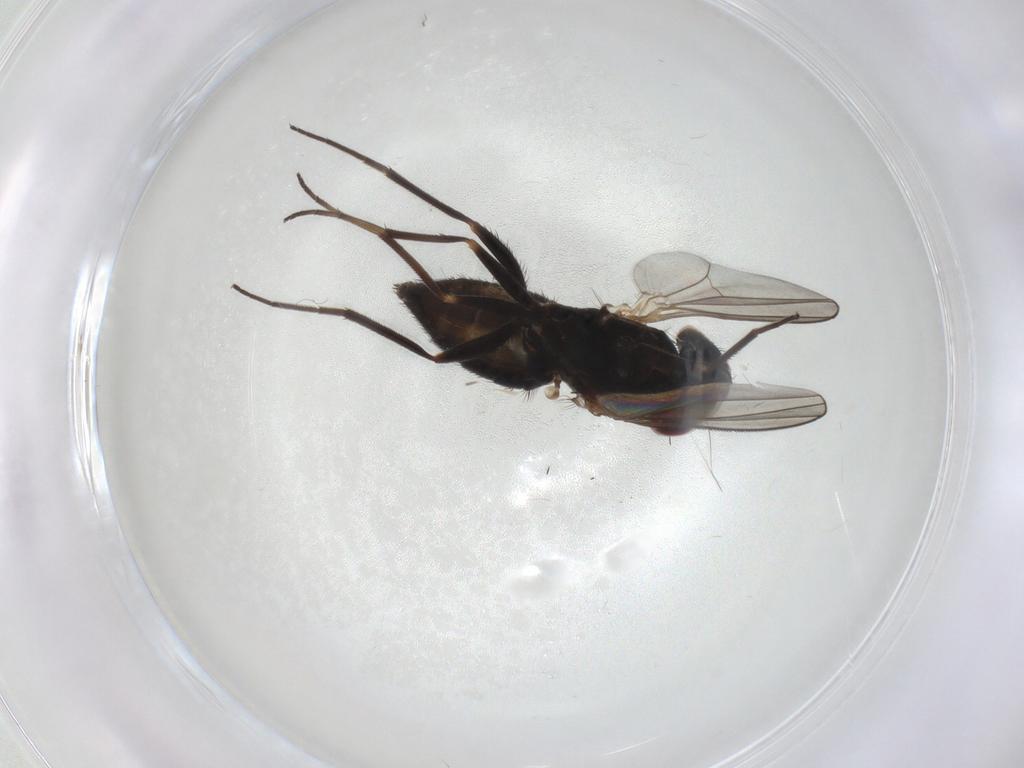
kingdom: Animalia
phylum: Arthropoda
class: Insecta
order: Diptera
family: Dolichopodidae
